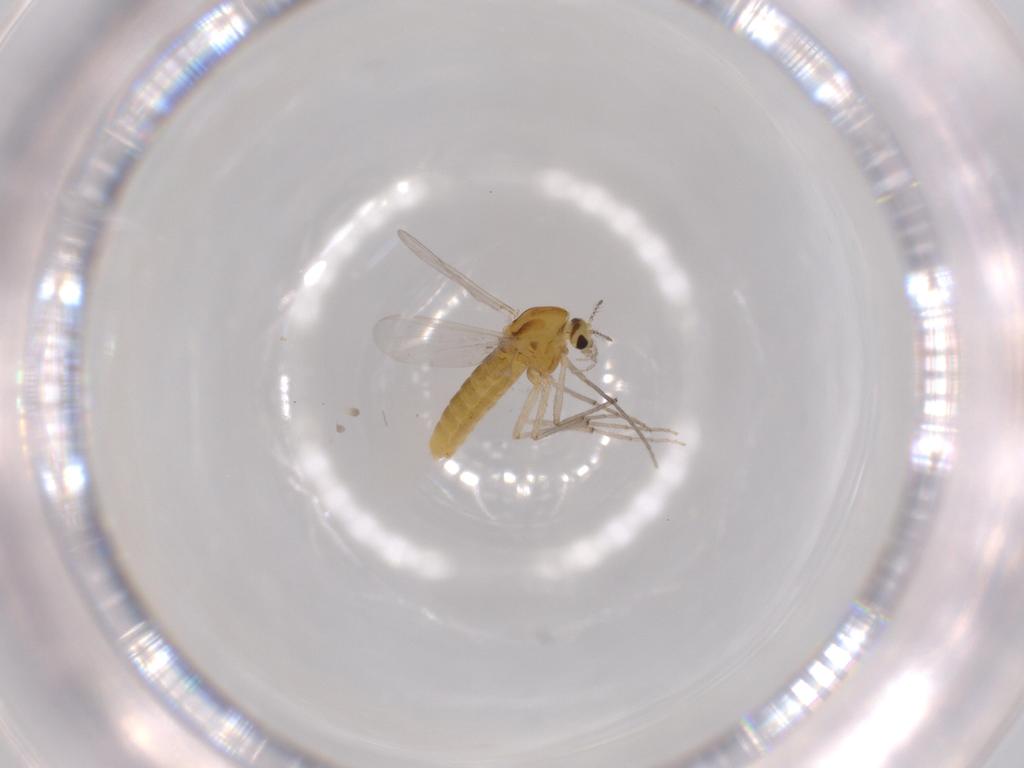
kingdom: Animalia
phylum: Arthropoda
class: Insecta
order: Diptera
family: Chironomidae
